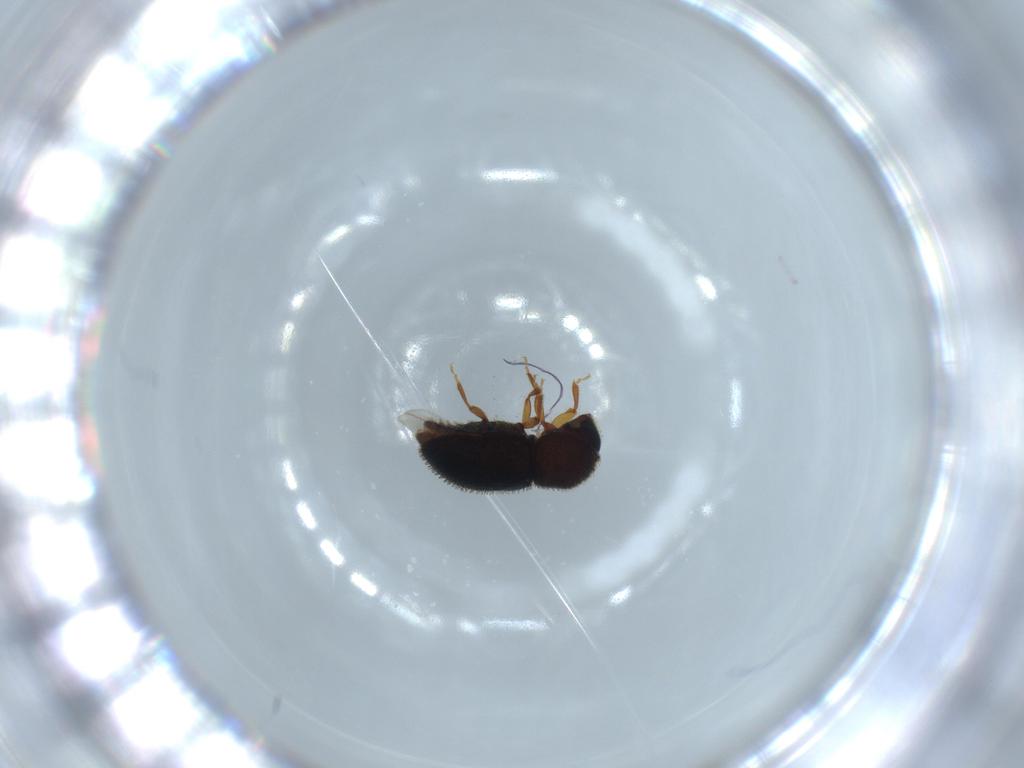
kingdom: Animalia
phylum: Arthropoda
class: Insecta
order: Coleoptera
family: Curculionidae
